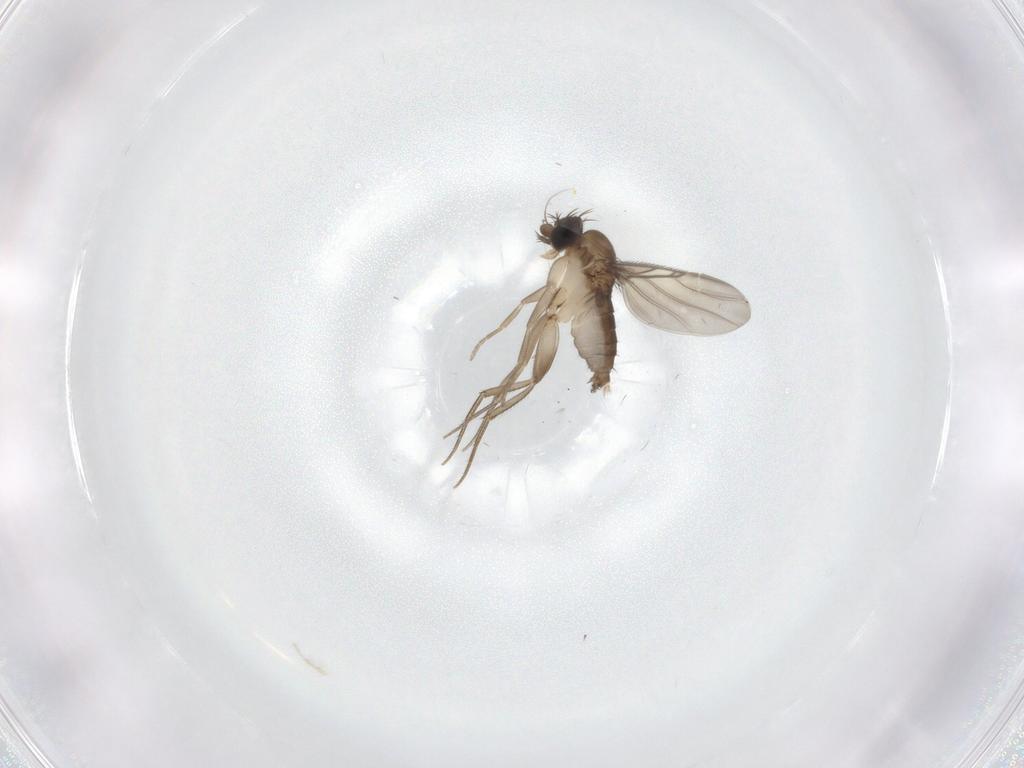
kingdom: Animalia
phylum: Arthropoda
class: Insecta
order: Diptera
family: Phoridae
